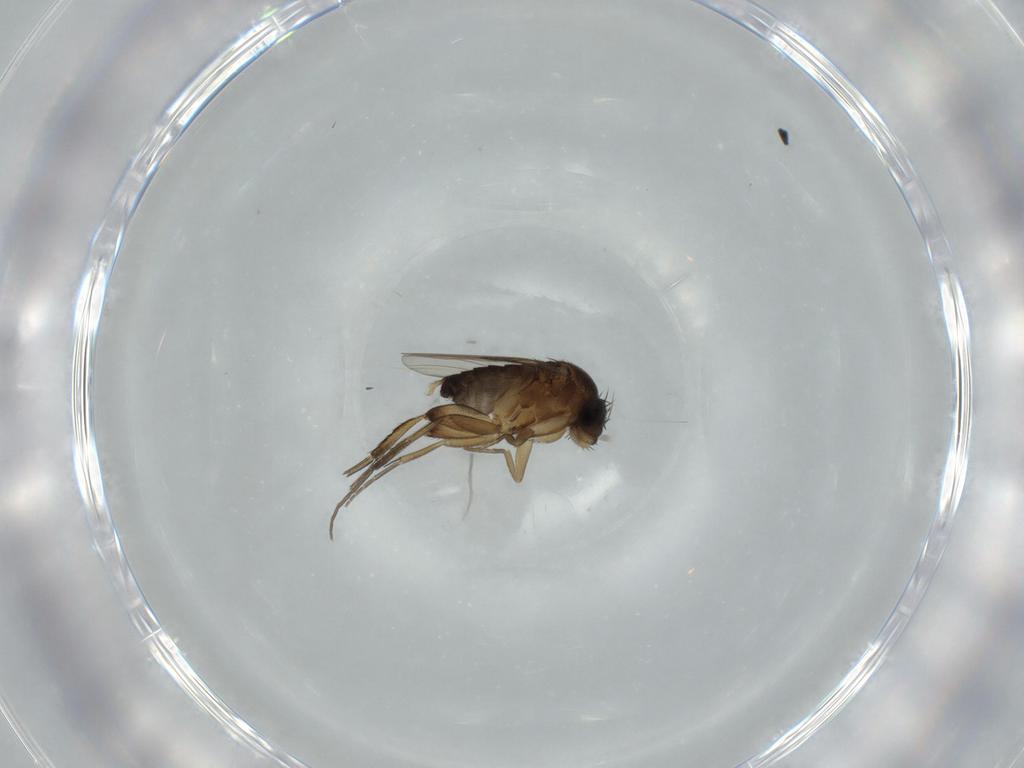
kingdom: Animalia
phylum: Arthropoda
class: Insecta
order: Diptera
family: Phoridae
